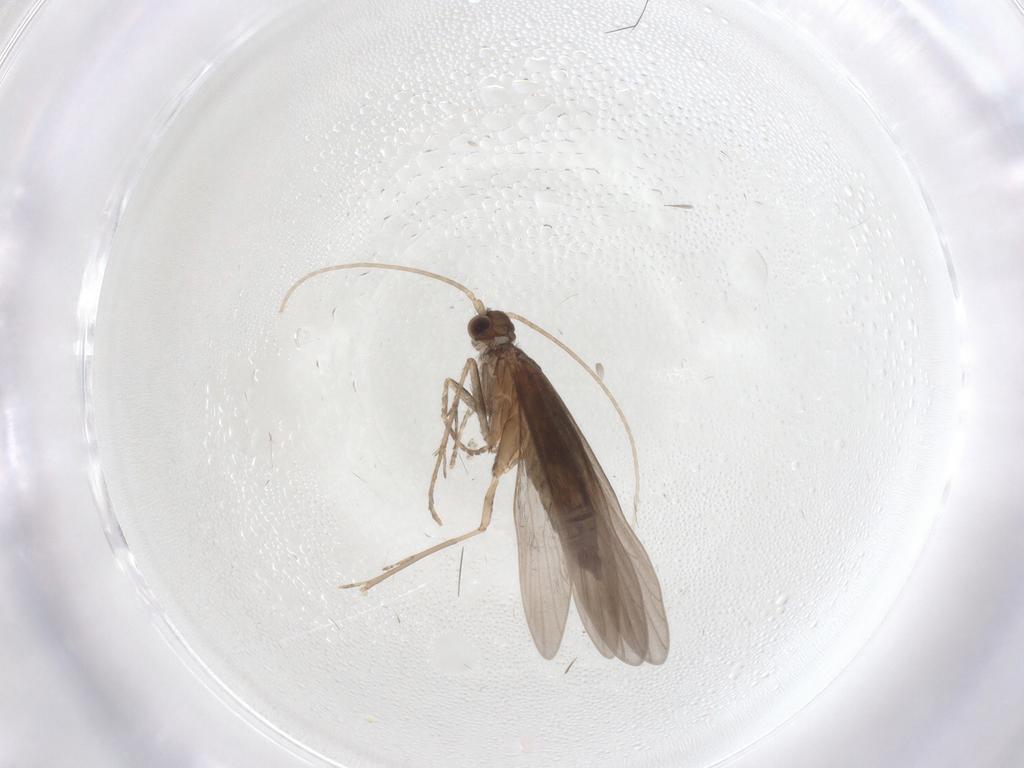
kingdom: Animalia
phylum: Arthropoda
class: Insecta
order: Trichoptera
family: Xiphocentronidae
